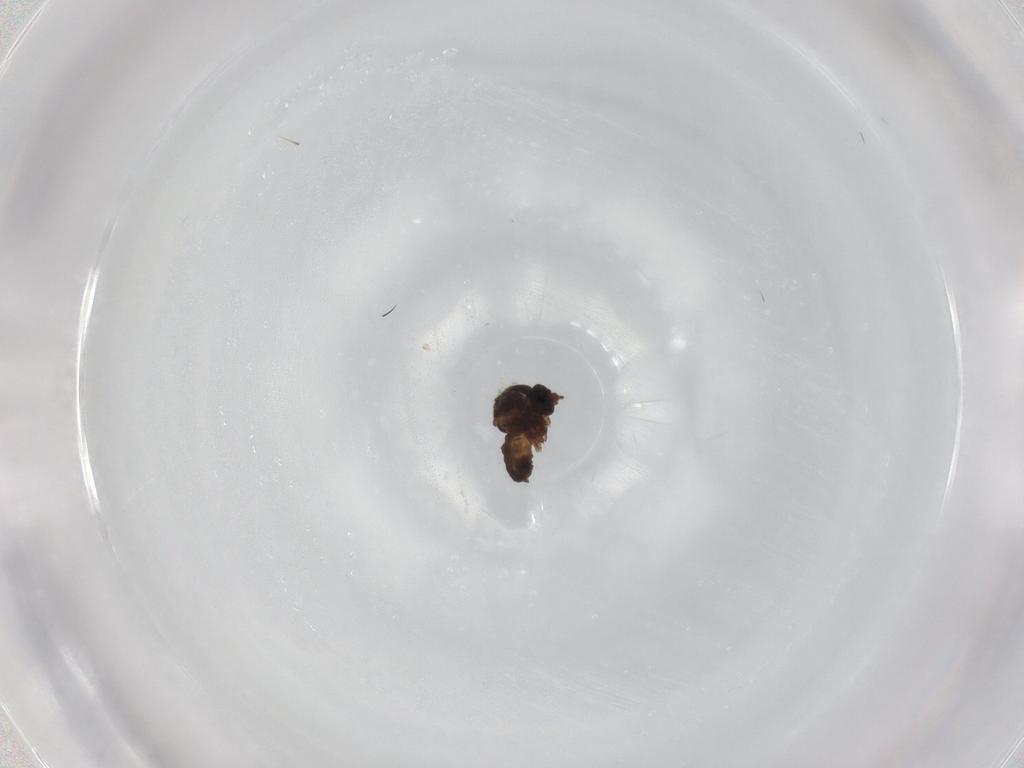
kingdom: Animalia
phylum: Arthropoda
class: Insecta
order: Diptera
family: Ceratopogonidae
